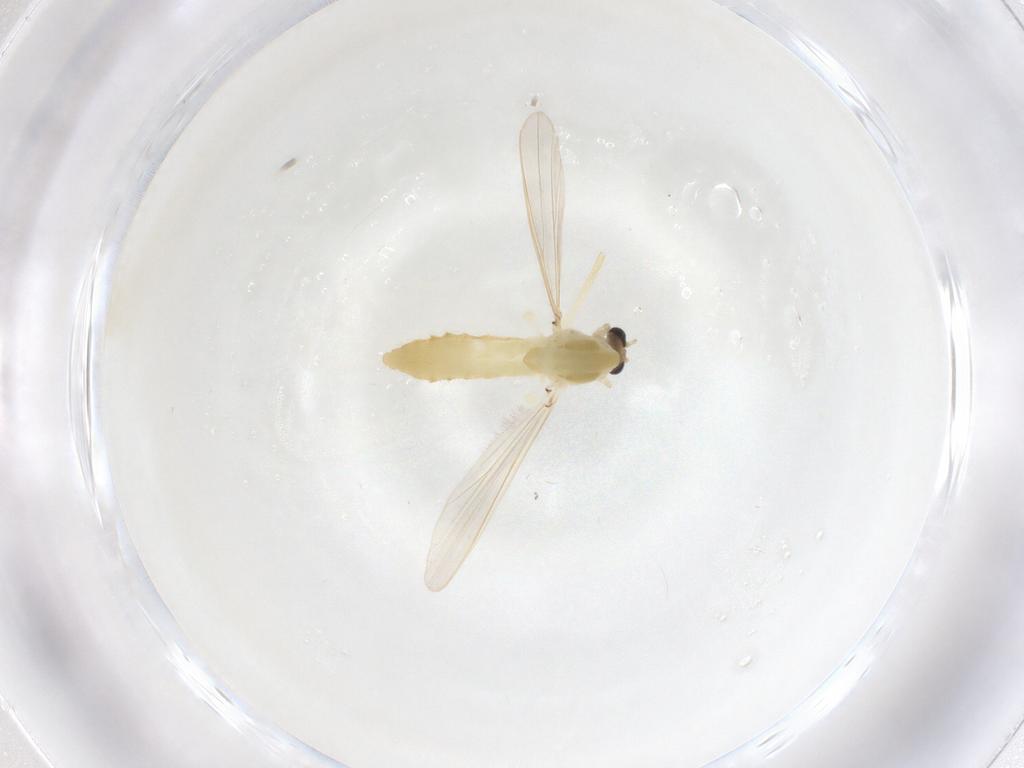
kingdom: Animalia
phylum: Arthropoda
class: Insecta
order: Diptera
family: Chironomidae
